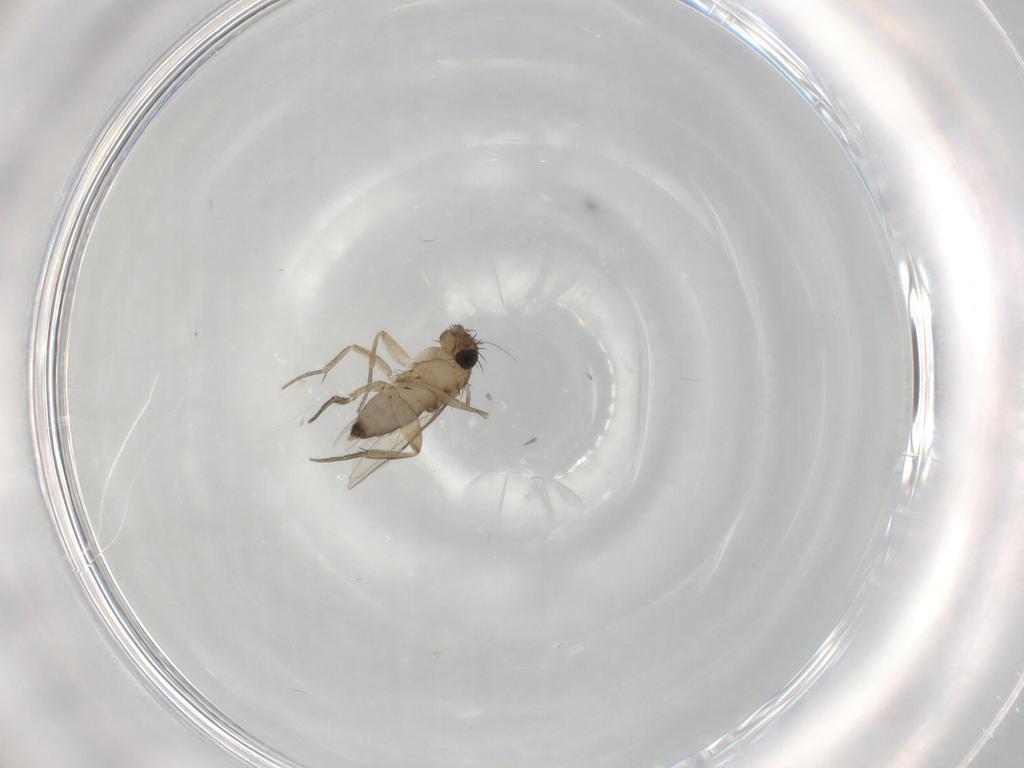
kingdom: Animalia
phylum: Arthropoda
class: Insecta
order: Diptera
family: Phoridae
